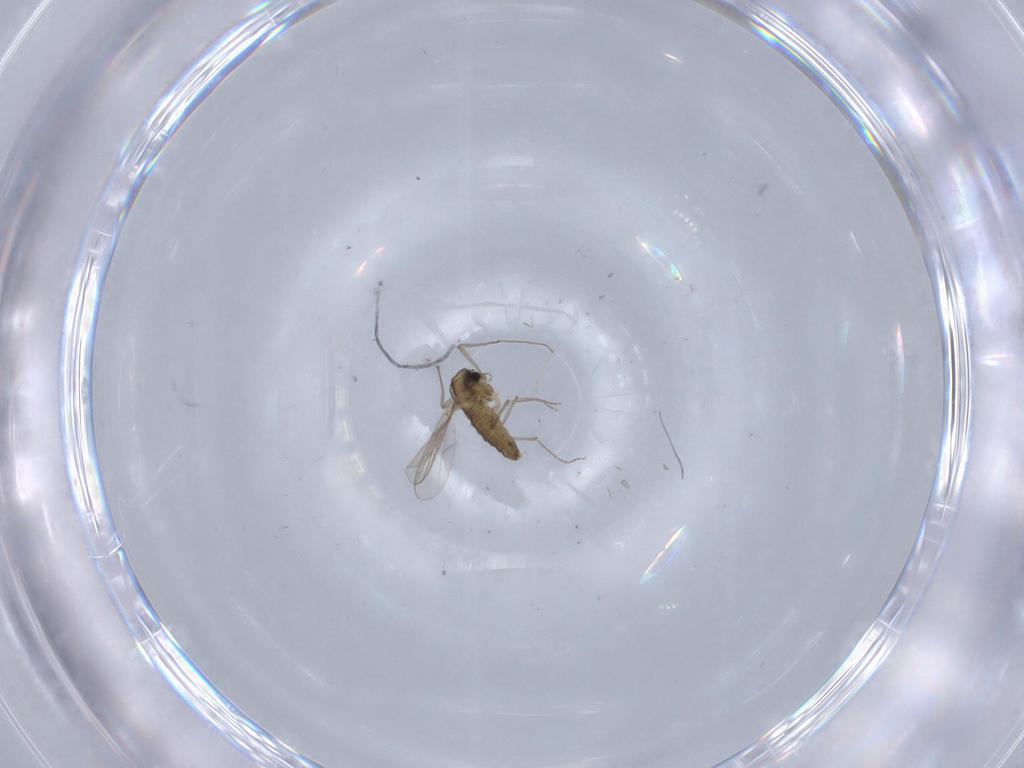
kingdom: Animalia
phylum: Arthropoda
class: Insecta
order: Diptera
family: Chironomidae
